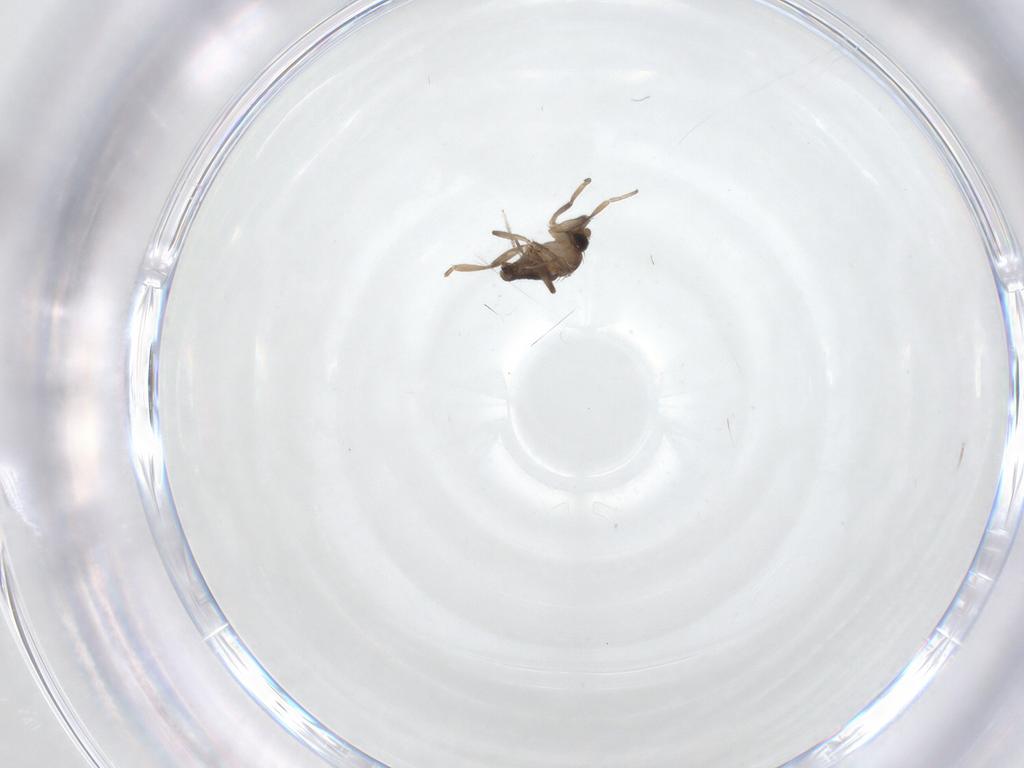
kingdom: Animalia
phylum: Arthropoda
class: Insecta
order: Diptera
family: Phoridae
